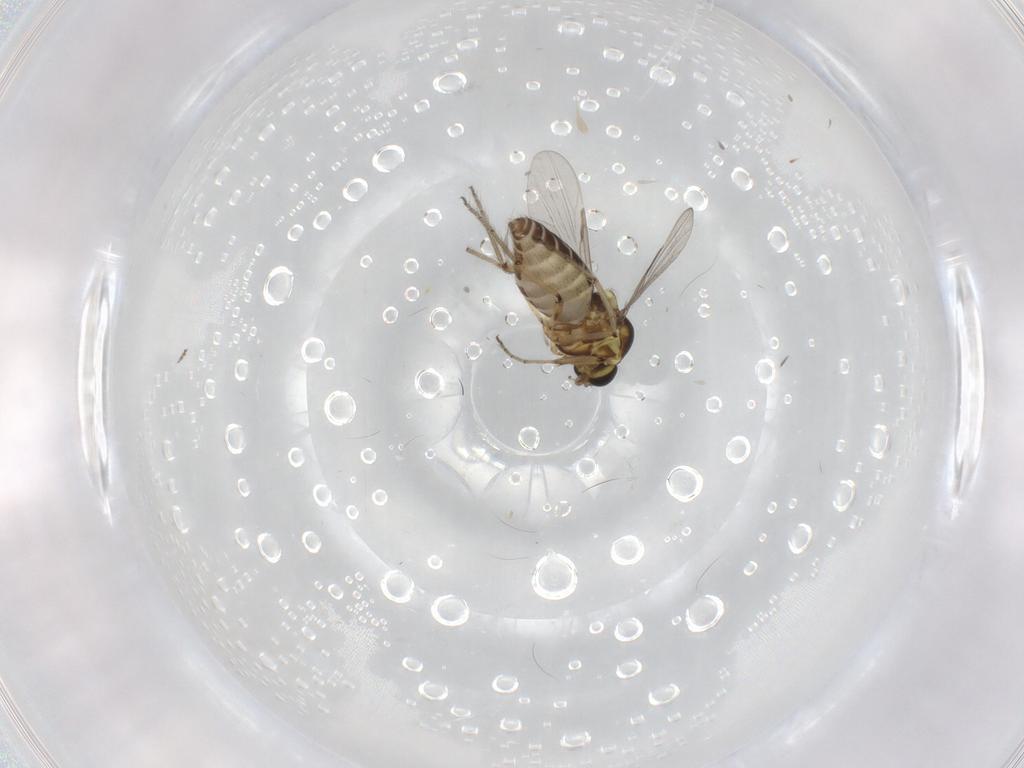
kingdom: Animalia
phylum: Arthropoda
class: Insecta
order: Diptera
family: Ceratopogonidae
